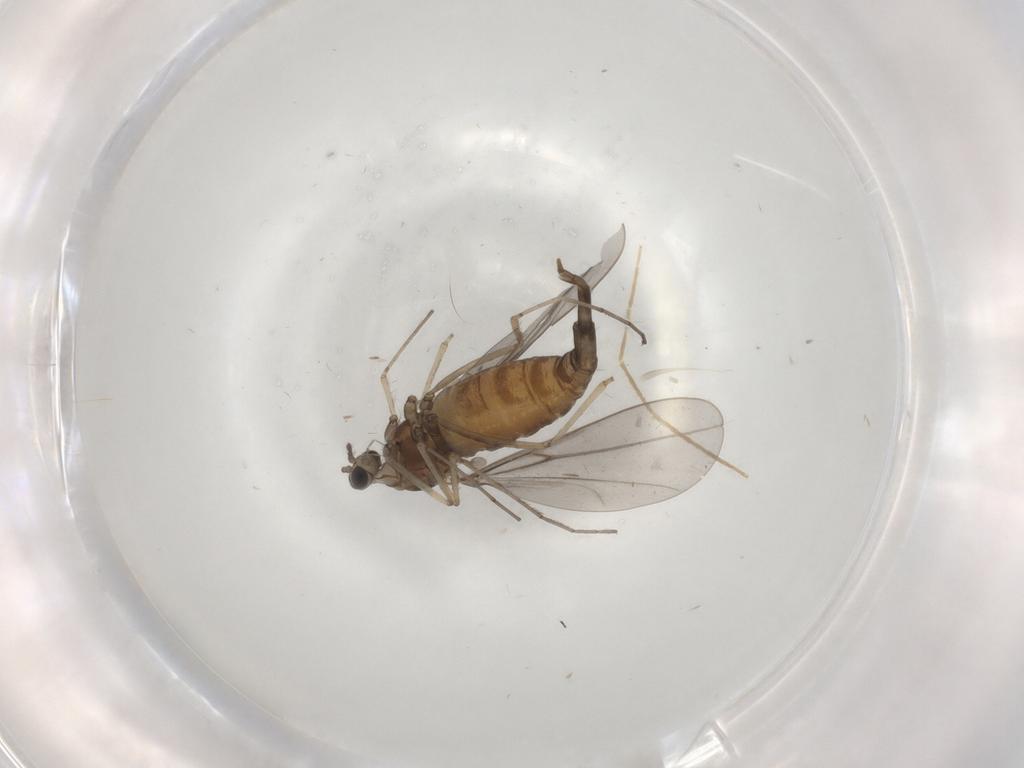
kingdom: Animalia
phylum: Arthropoda
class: Insecta
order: Diptera
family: Cecidomyiidae
